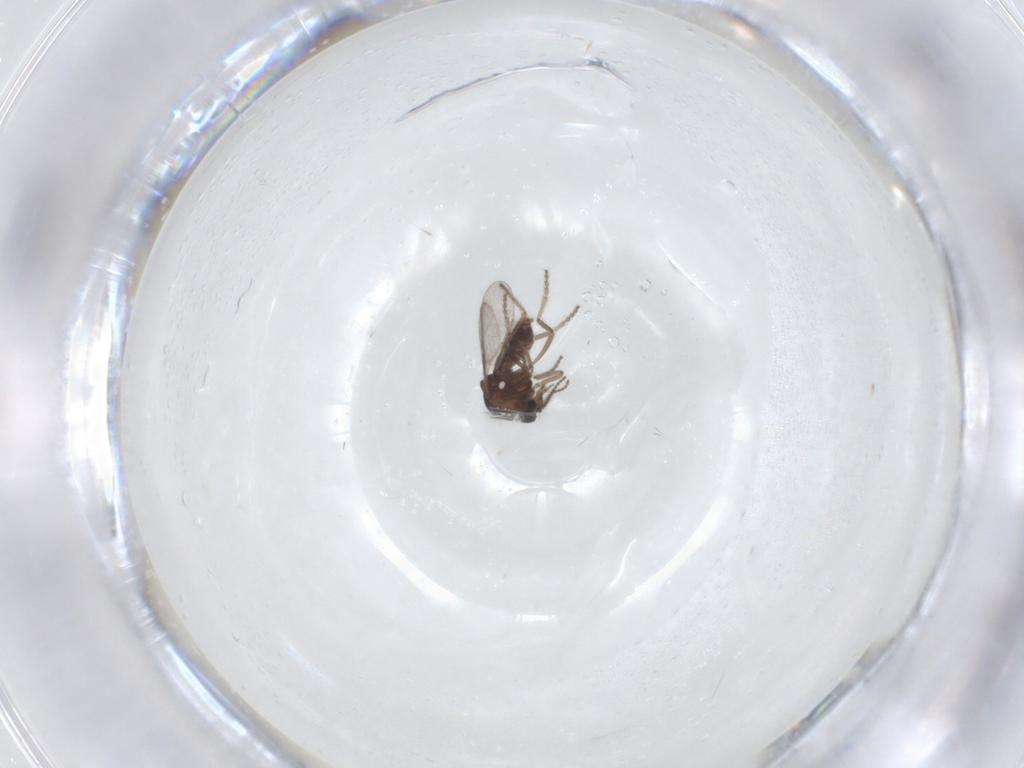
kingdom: Animalia
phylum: Arthropoda
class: Insecta
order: Diptera
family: Ceratopogonidae
